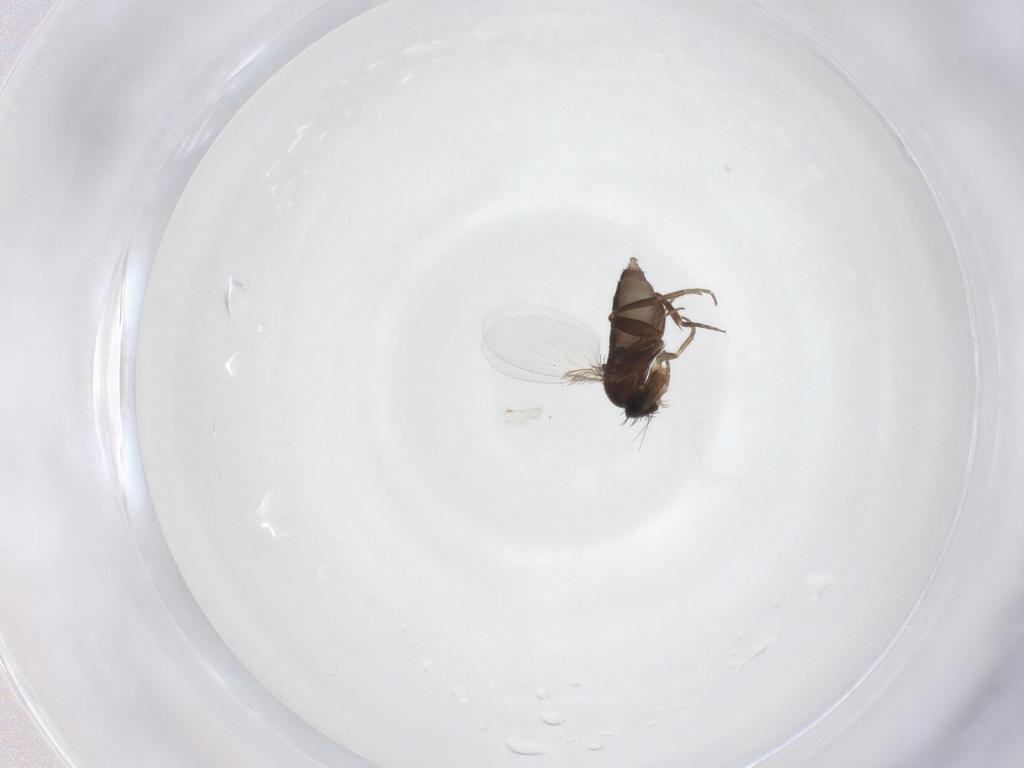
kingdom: Animalia
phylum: Arthropoda
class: Insecta
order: Diptera
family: Phoridae
